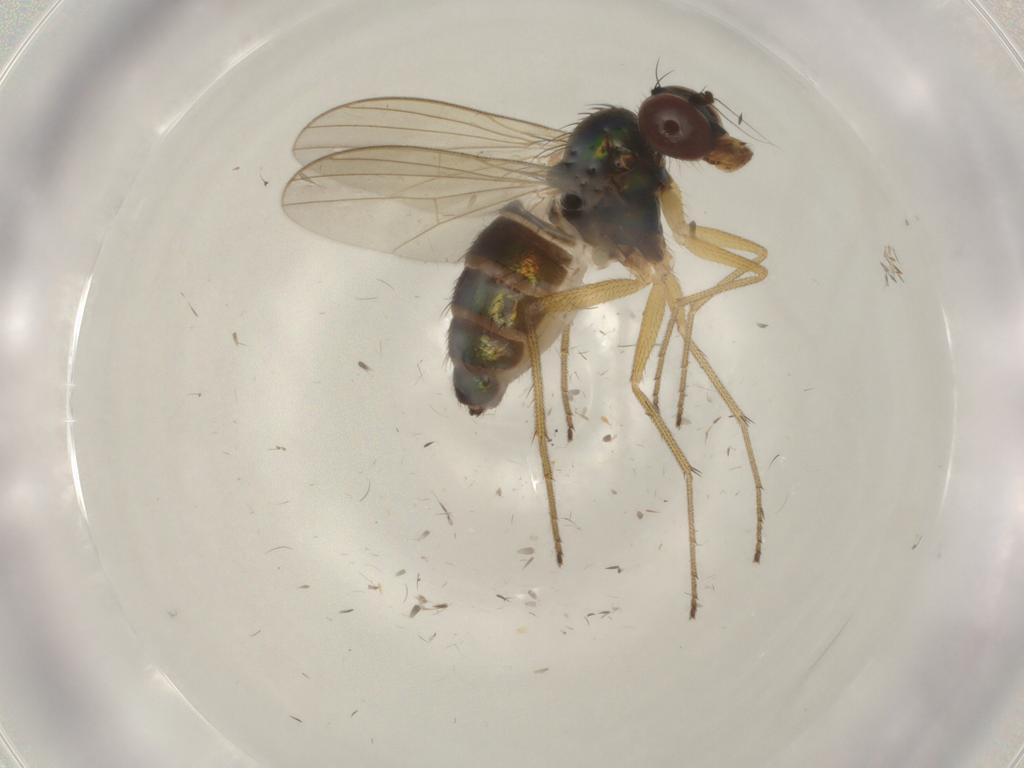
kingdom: Animalia
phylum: Arthropoda
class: Insecta
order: Diptera
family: Dolichopodidae
